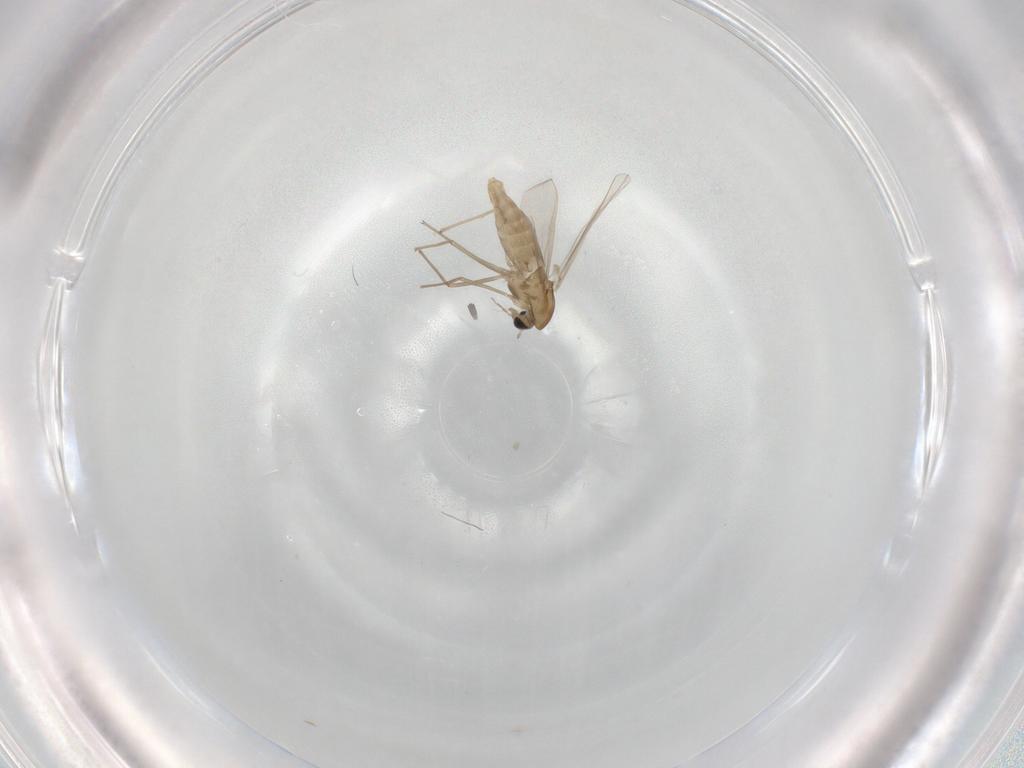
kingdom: Animalia
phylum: Arthropoda
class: Insecta
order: Diptera
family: Chironomidae
